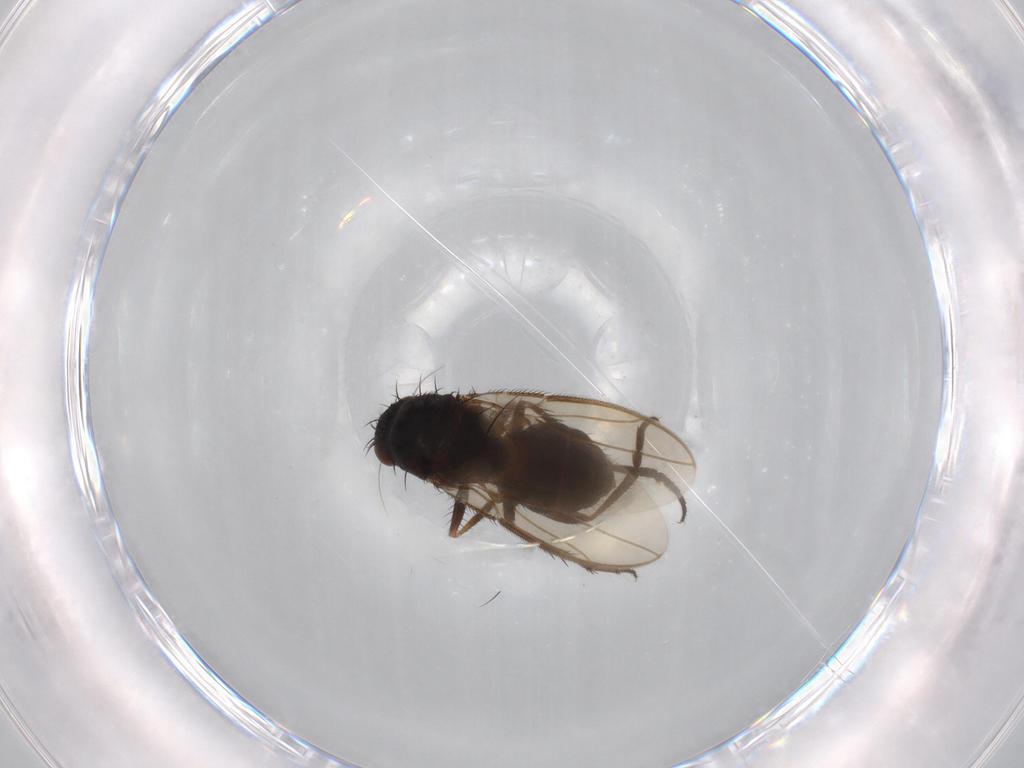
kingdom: Animalia
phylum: Arthropoda
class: Insecta
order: Diptera
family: Sphaeroceridae
